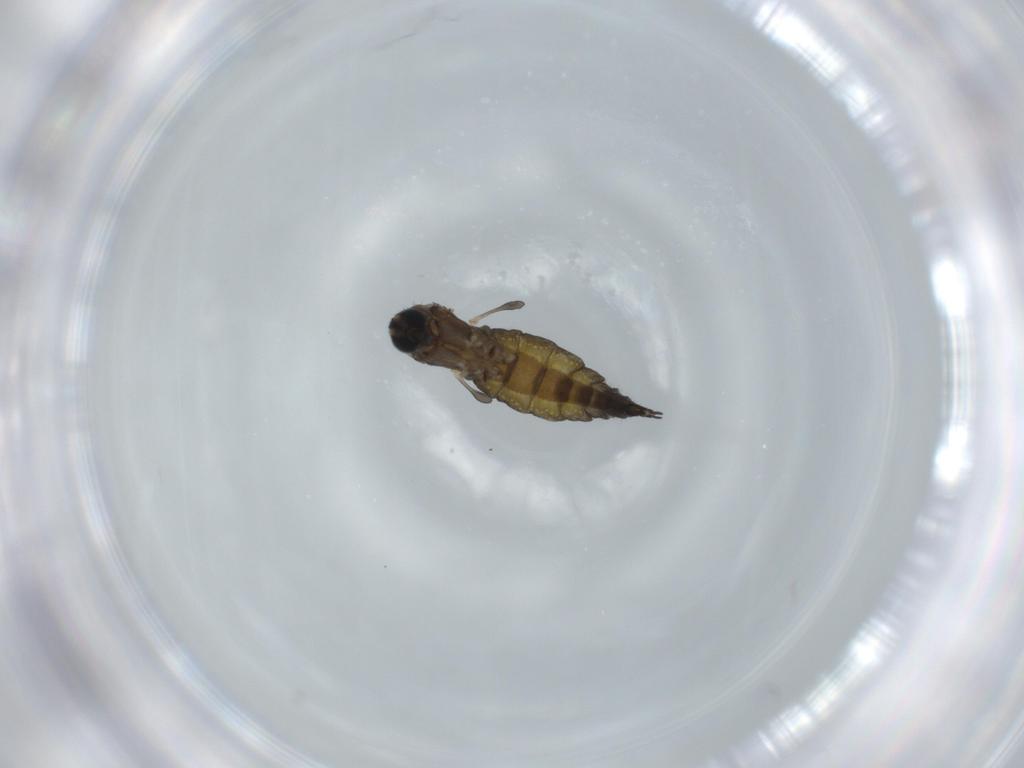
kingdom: Animalia
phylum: Arthropoda
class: Insecta
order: Diptera
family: Sciaridae
